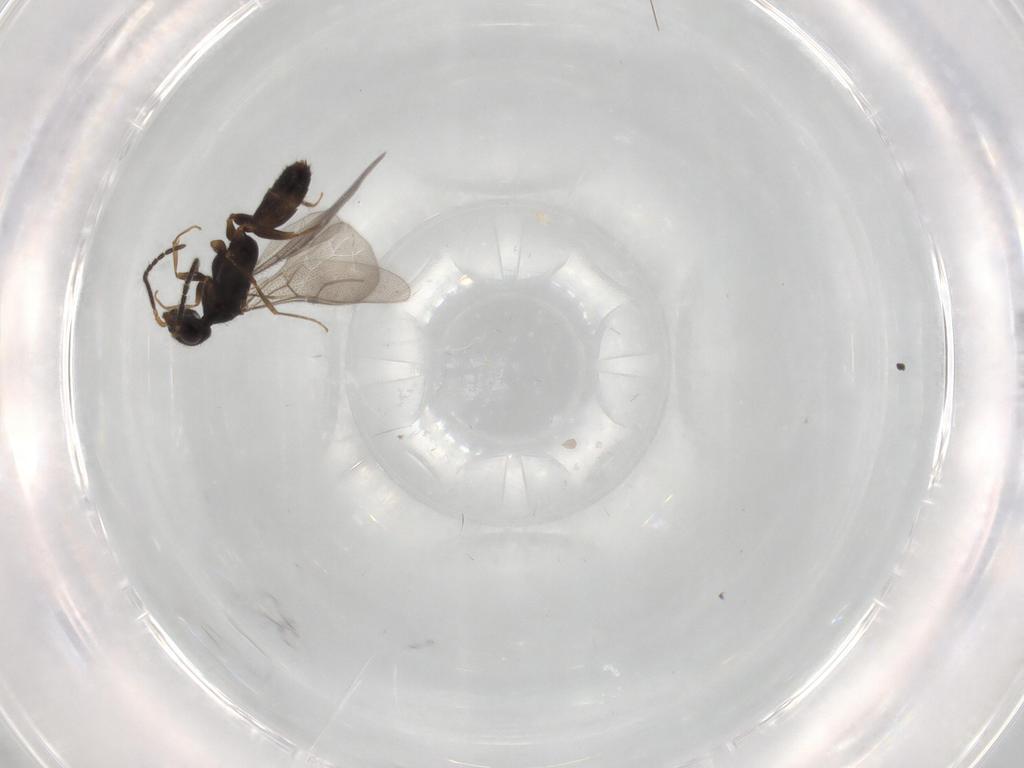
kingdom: Animalia
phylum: Arthropoda
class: Insecta
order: Hymenoptera
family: Bethylidae
